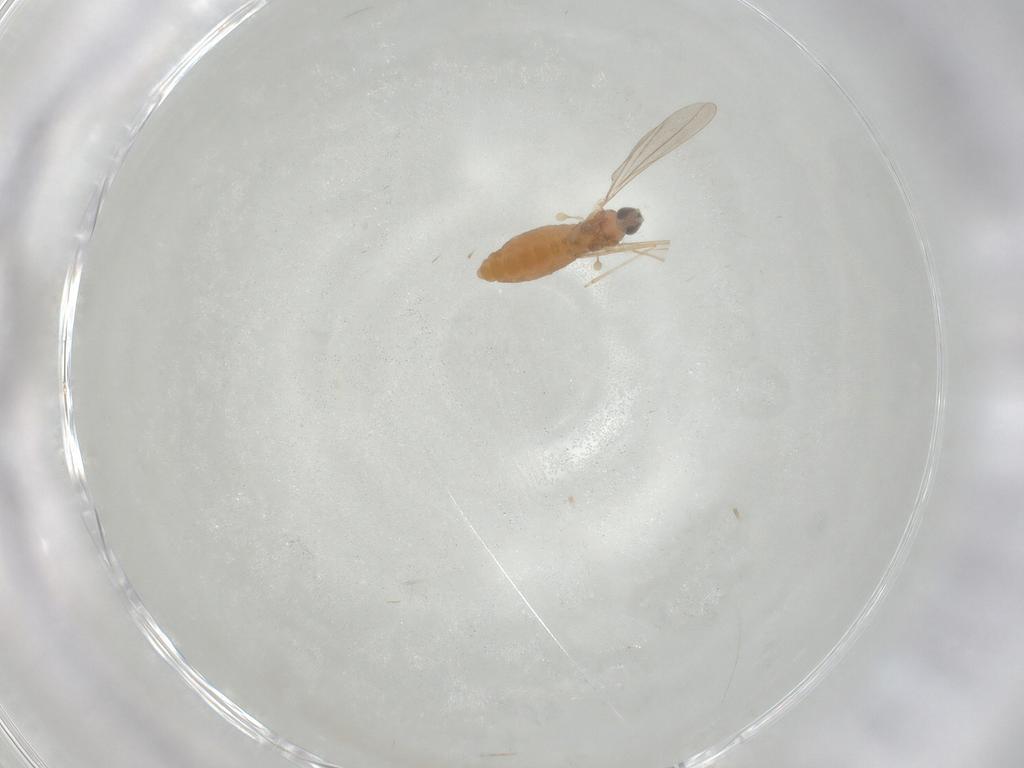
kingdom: Animalia
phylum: Arthropoda
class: Insecta
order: Diptera
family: Cecidomyiidae
